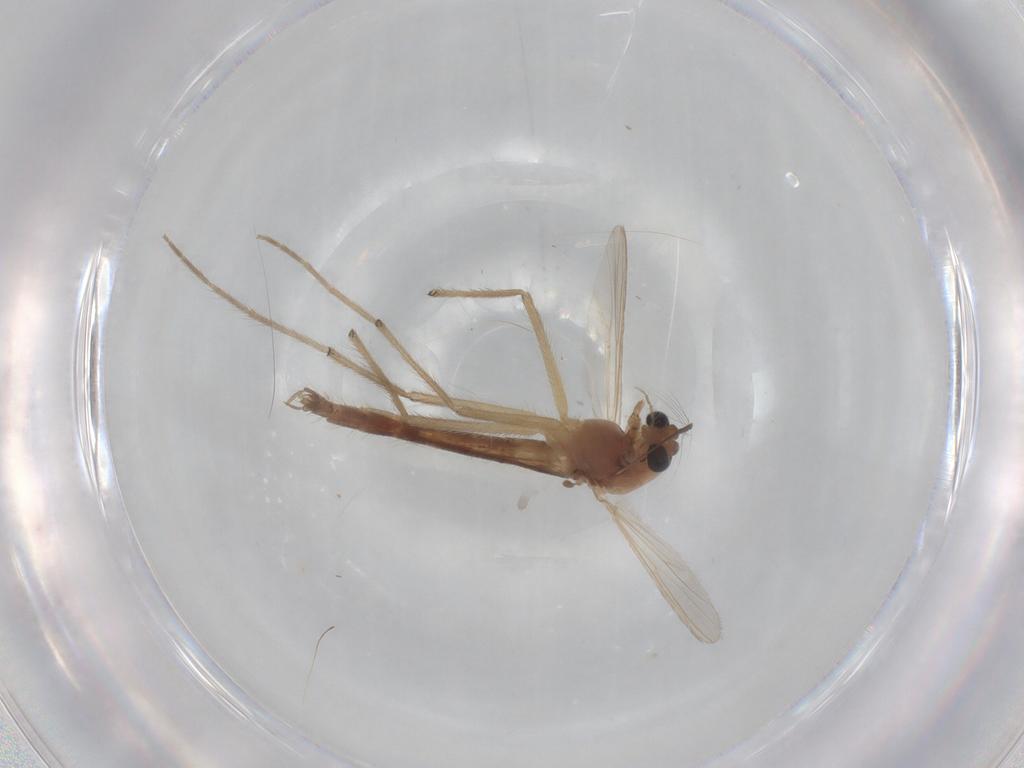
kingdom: Animalia
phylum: Arthropoda
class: Insecta
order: Diptera
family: Chironomidae
